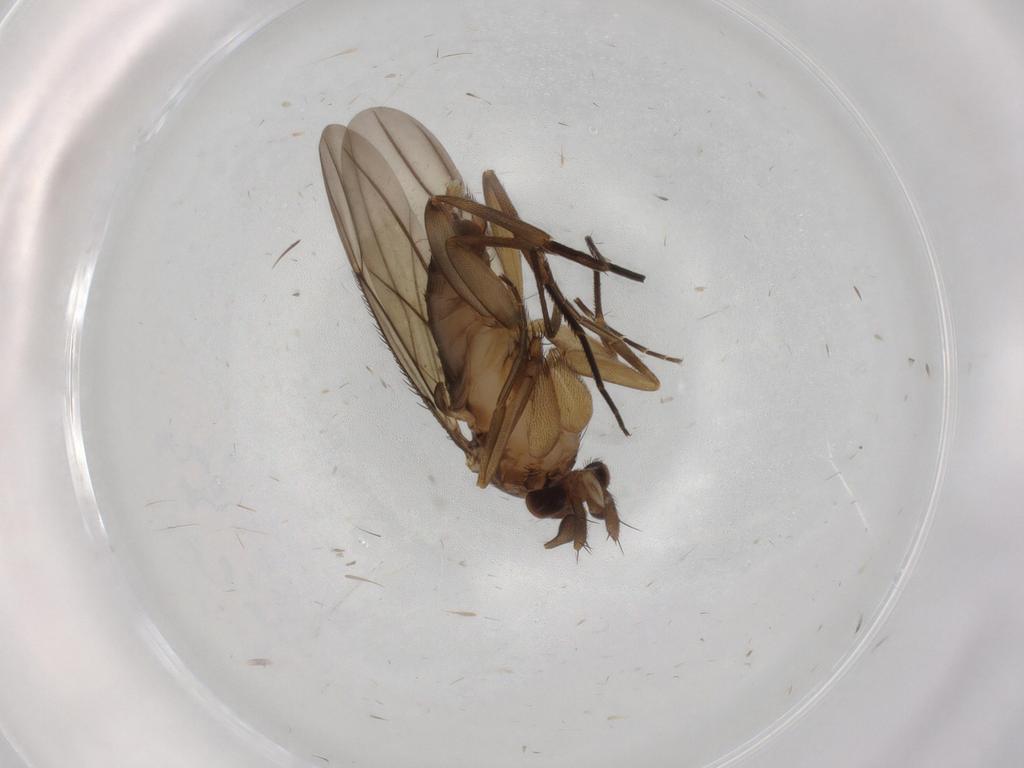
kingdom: Animalia
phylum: Arthropoda
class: Insecta
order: Diptera
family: Phoridae
